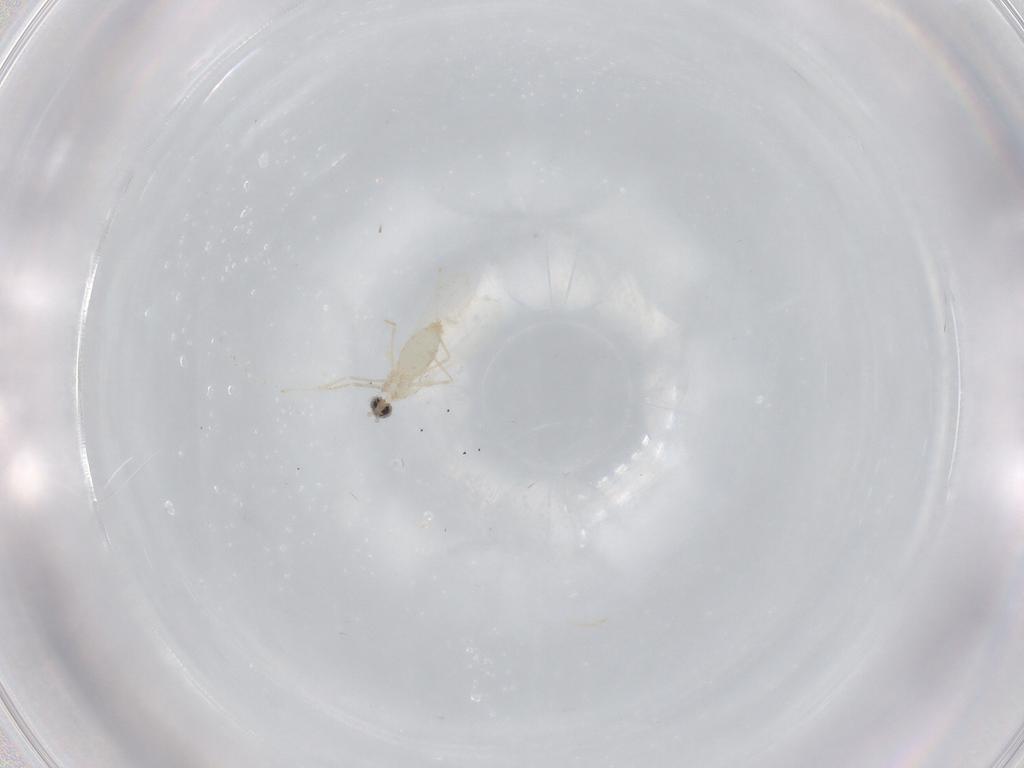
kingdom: Animalia
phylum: Arthropoda
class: Insecta
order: Diptera
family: Cecidomyiidae
